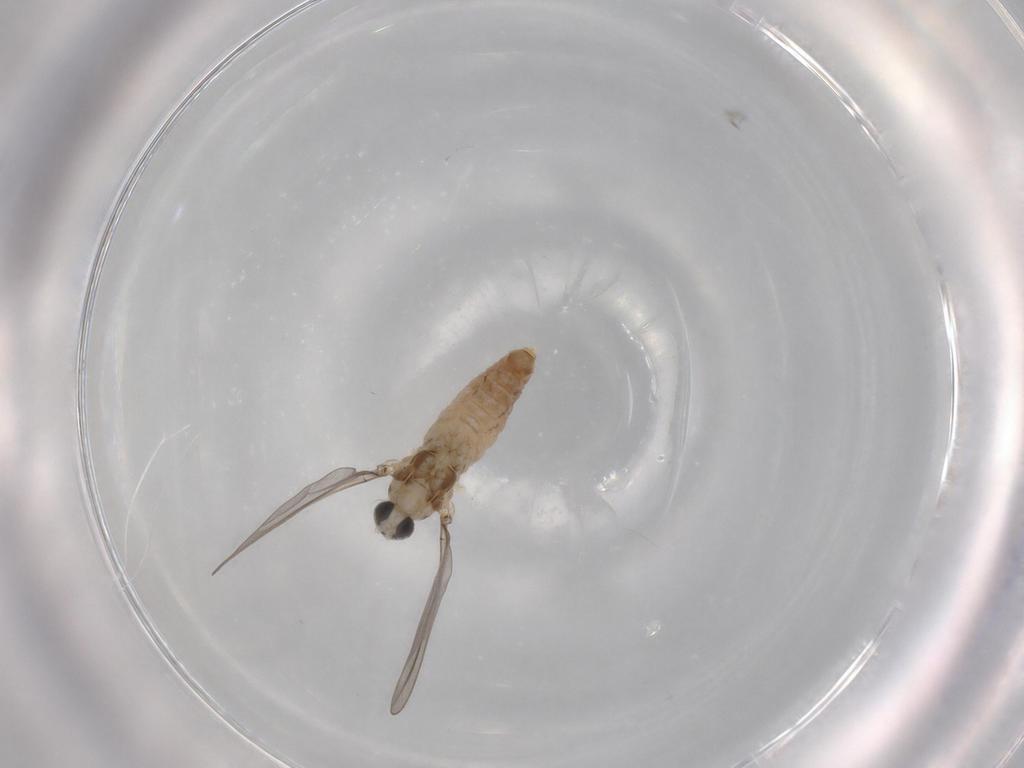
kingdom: Animalia
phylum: Arthropoda
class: Insecta
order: Diptera
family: Cecidomyiidae
